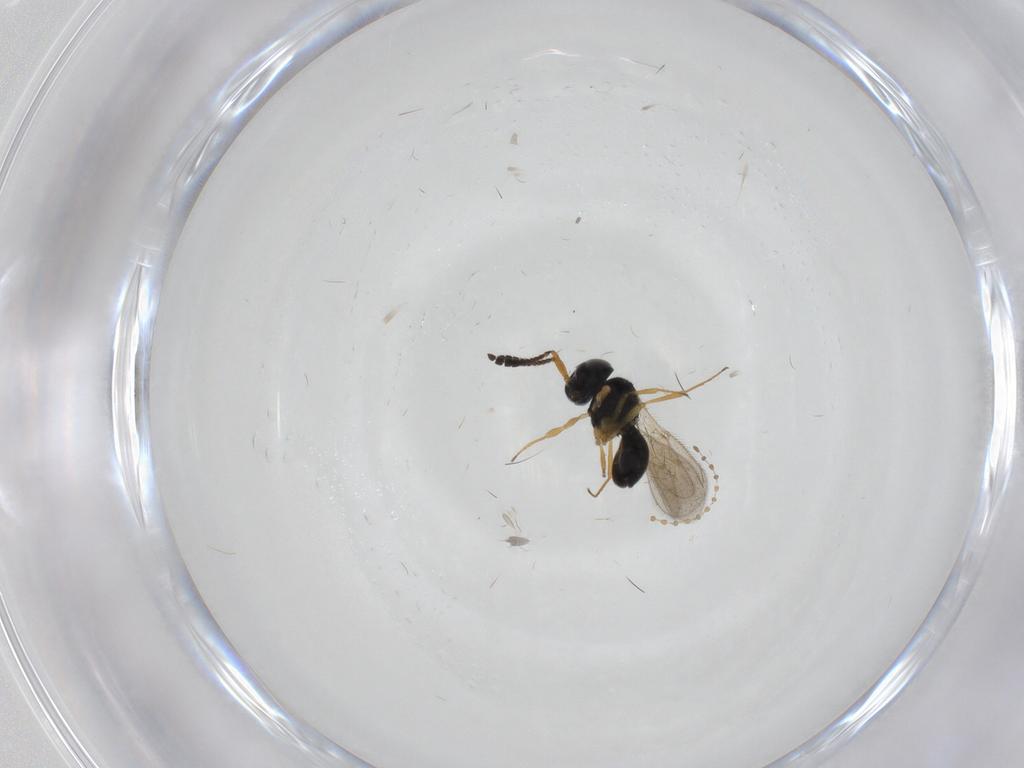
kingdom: Animalia
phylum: Arthropoda
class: Insecta
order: Hymenoptera
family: Scelionidae
